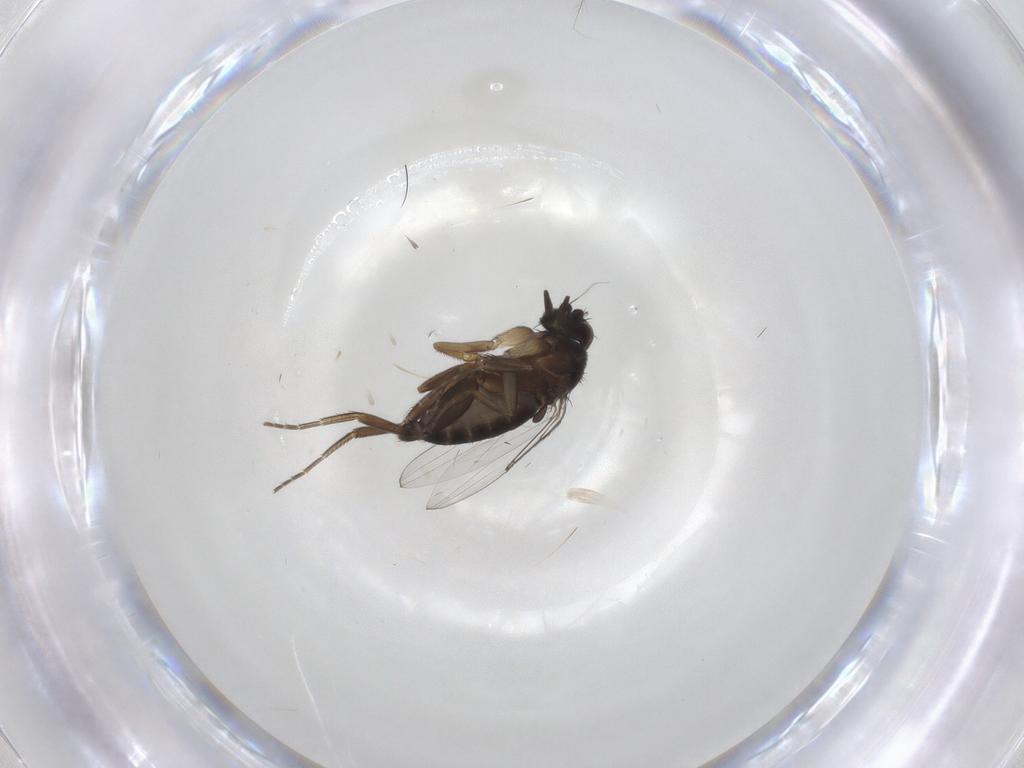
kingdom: Animalia
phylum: Arthropoda
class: Insecta
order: Diptera
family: Phoridae
